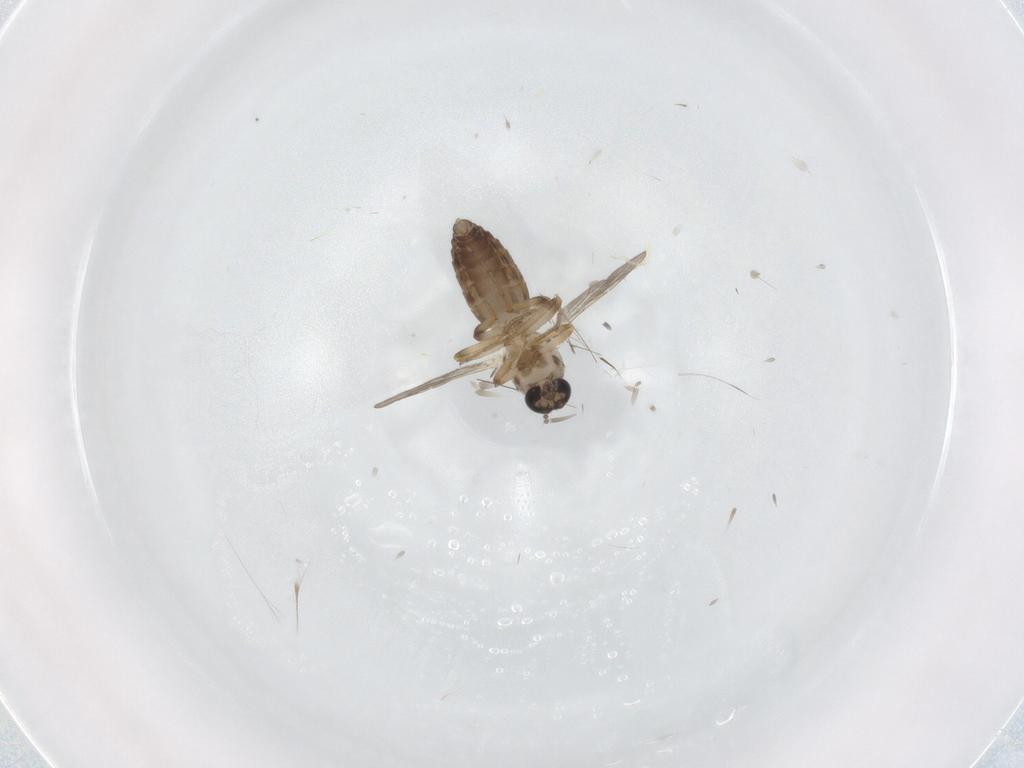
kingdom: Animalia
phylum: Arthropoda
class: Insecta
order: Diptera
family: Ceratopogonidae
